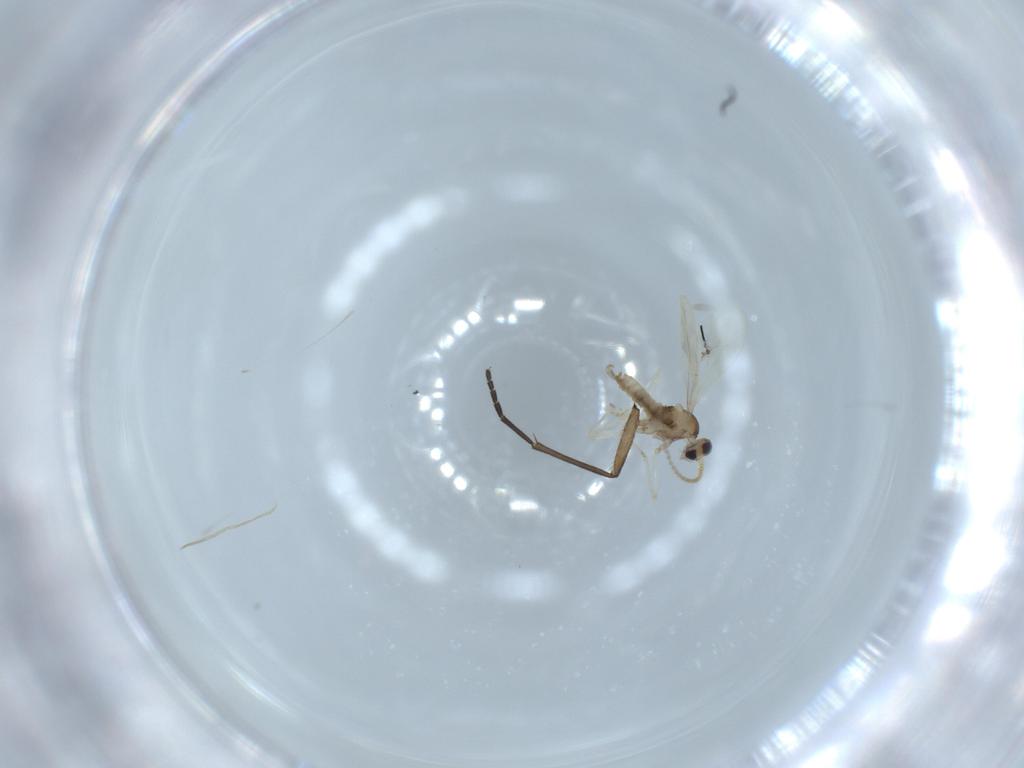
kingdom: Animalia
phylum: Arthropoda
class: Insecta
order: Diptera
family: Sciaridae
